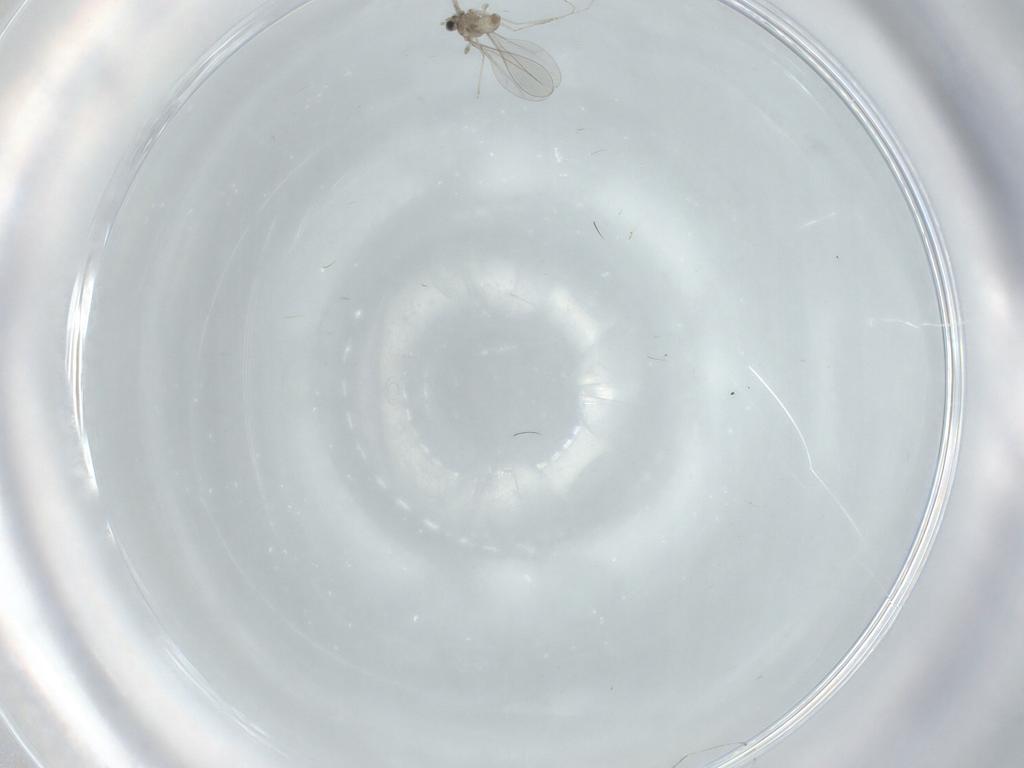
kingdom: Animalia
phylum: Arthropoda
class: Insecta
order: Diptera
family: Cecidomyiidae
